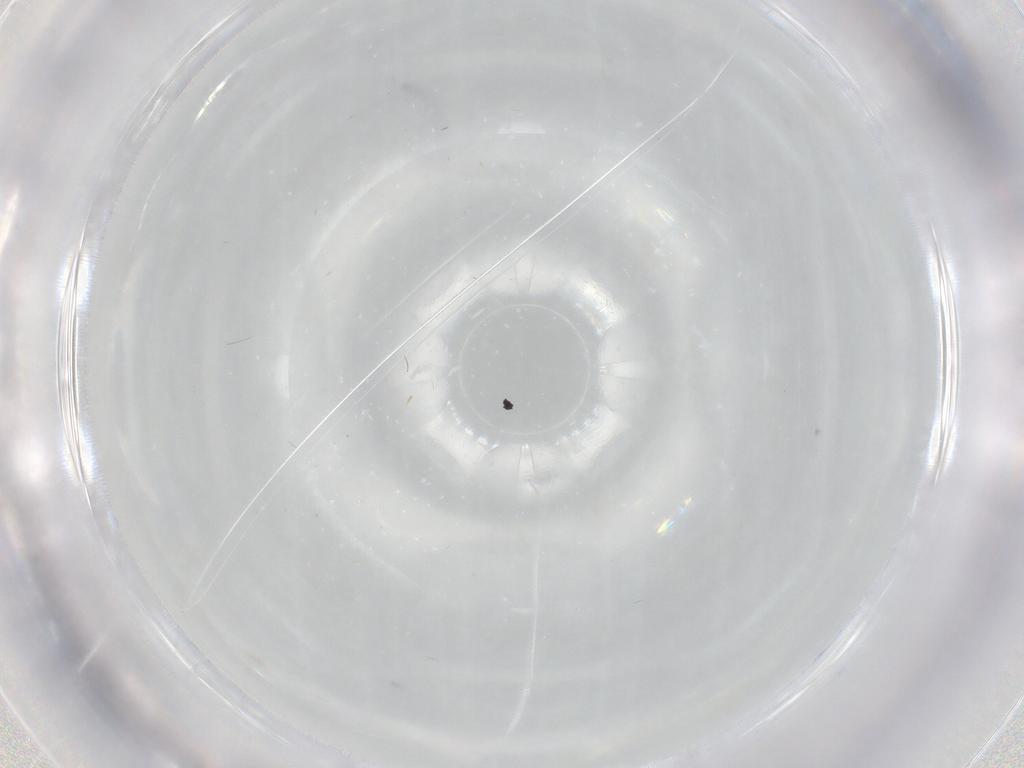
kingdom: Animalia
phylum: Arthropoda
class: Insecta
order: Diptera
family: Cecidomyiidae
